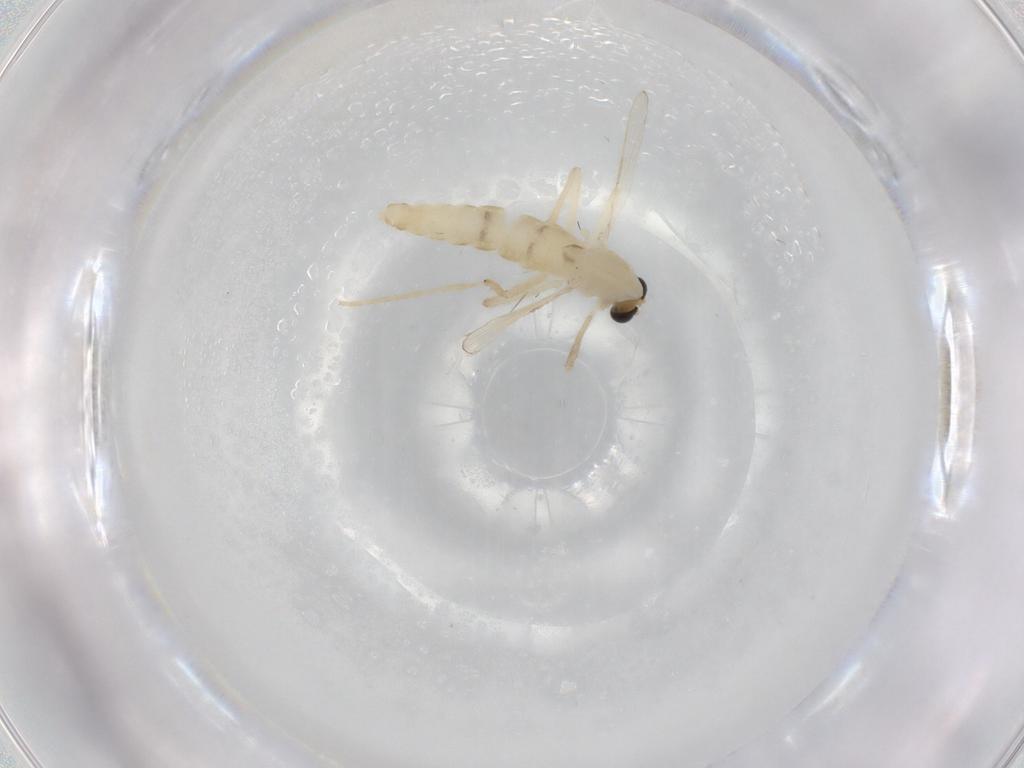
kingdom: Animalia
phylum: Arthropoda
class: Insecta
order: Diptera
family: Chironomidae
